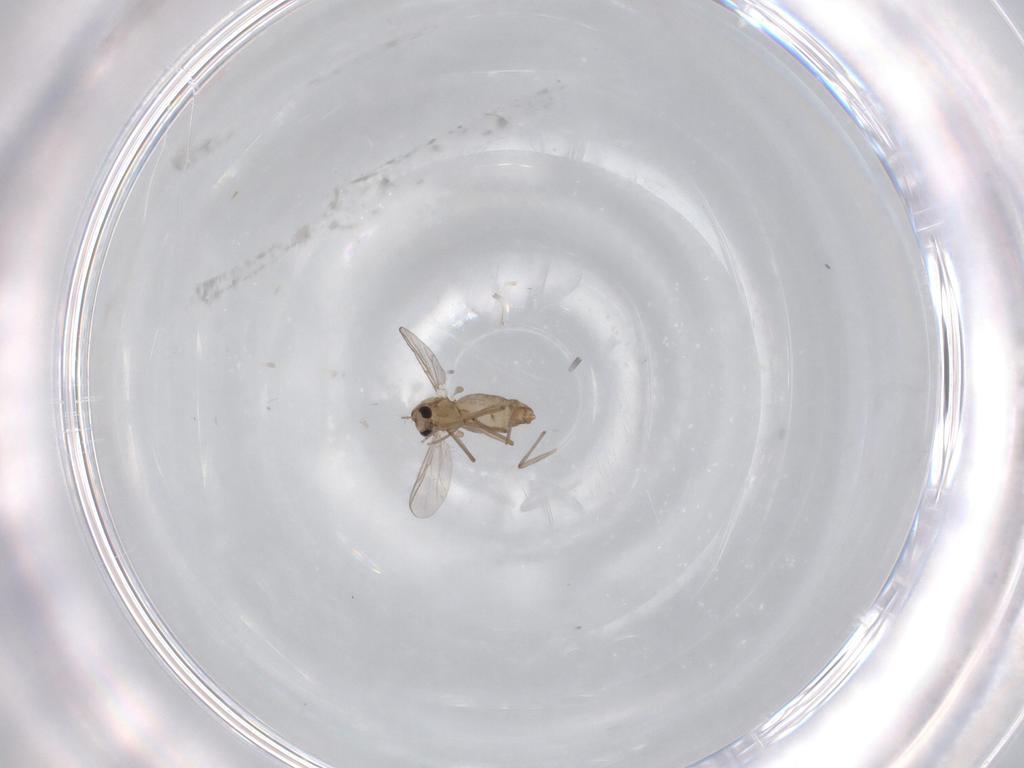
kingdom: Animalia
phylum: Arthropoda
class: Insecta
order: Diptera
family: Chironomidae
